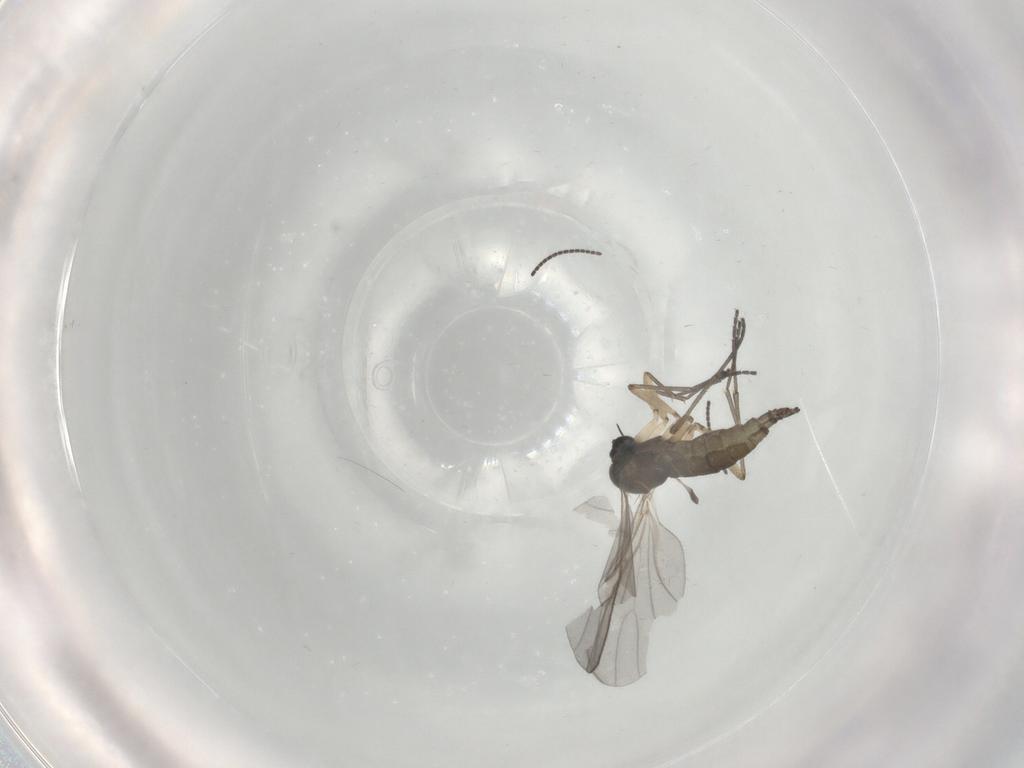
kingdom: Animalia
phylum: Arthropoda
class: Insecta
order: Diptera
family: Sciaridae
